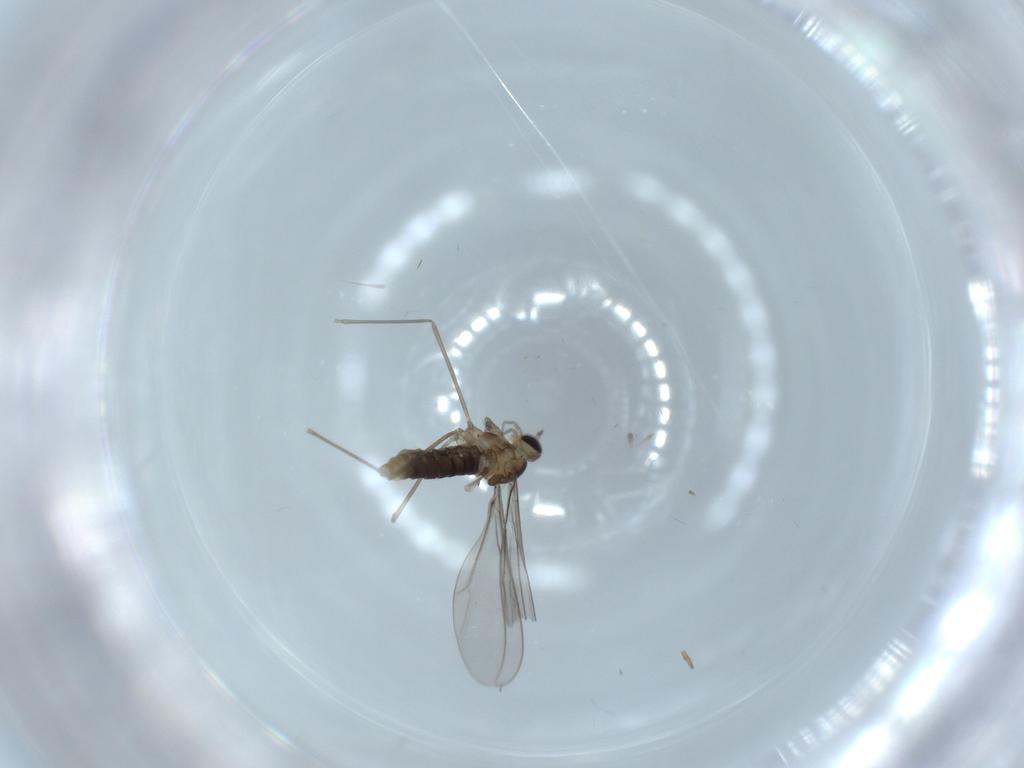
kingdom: Animalia
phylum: Arthropoda
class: Insecta
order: Diptera
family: Cecidomyiidae
